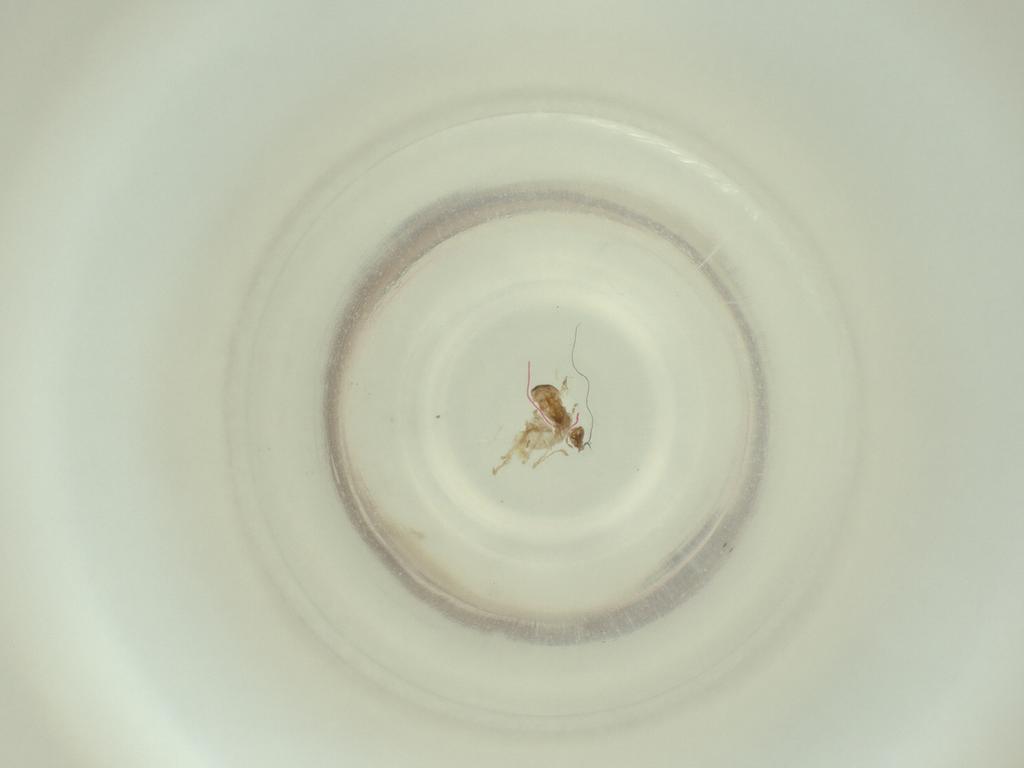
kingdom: Animalia
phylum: Arthropoda
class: Insecta
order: Diptera
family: Cecidomyiidae
